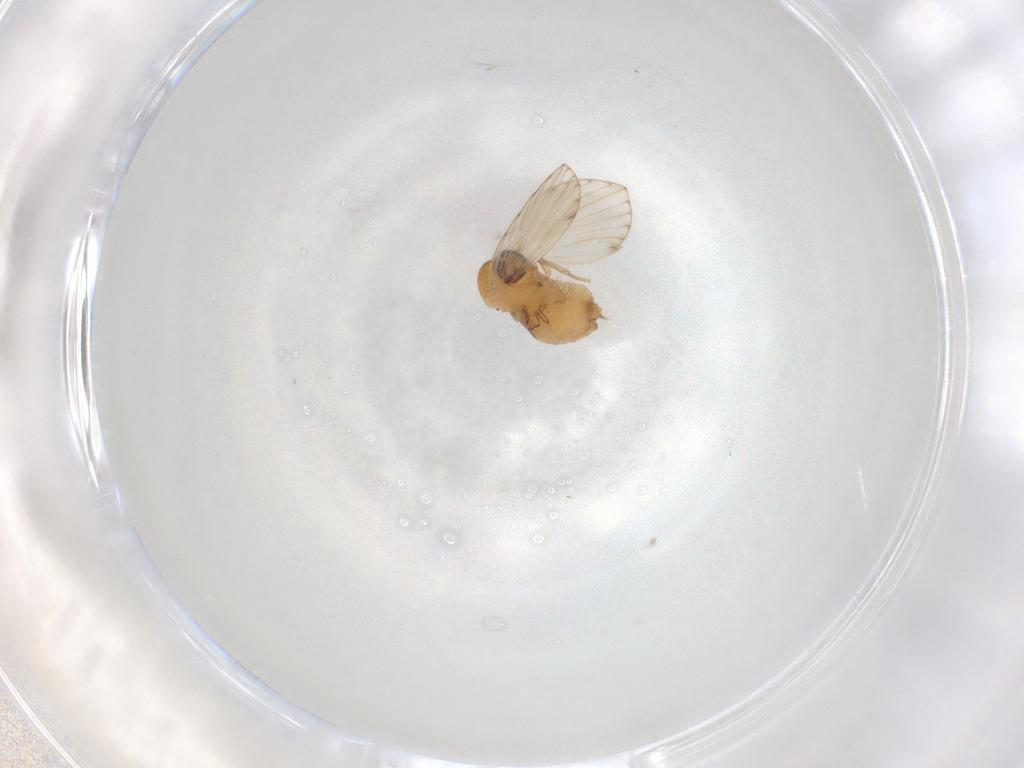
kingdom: Animalia
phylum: Arthropoda
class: Insecta
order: Diptera
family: Psychodidae
